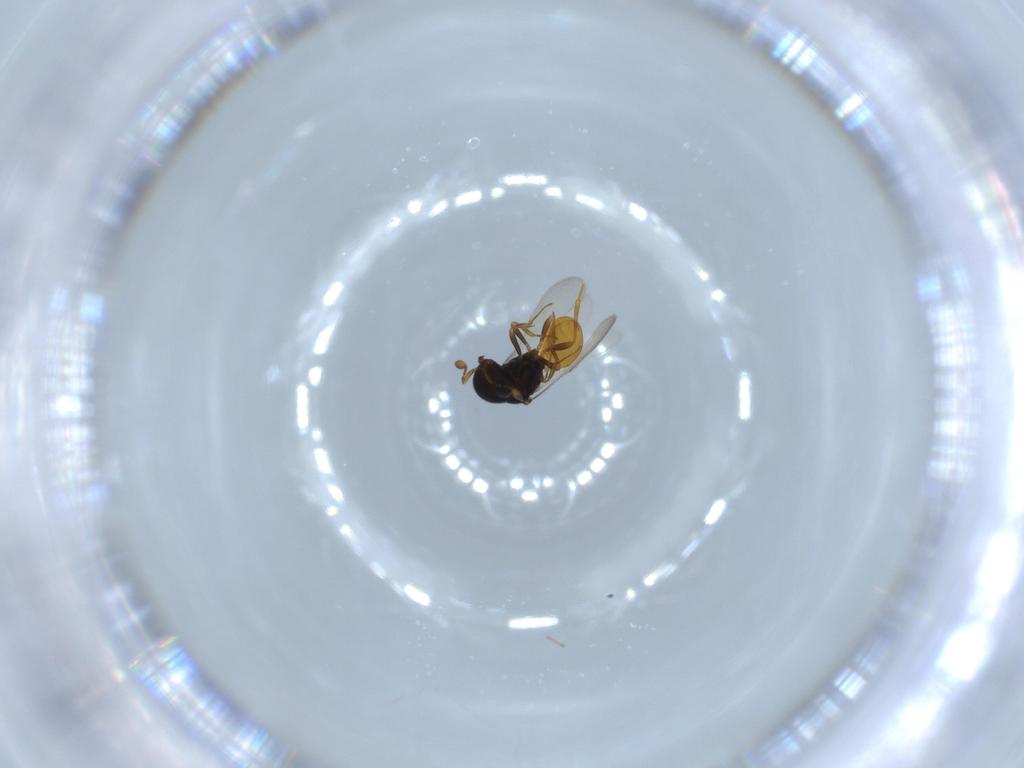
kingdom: Animalia
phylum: Arthropoda
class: Insecta
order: Hymenoptera
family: Scelionidae
